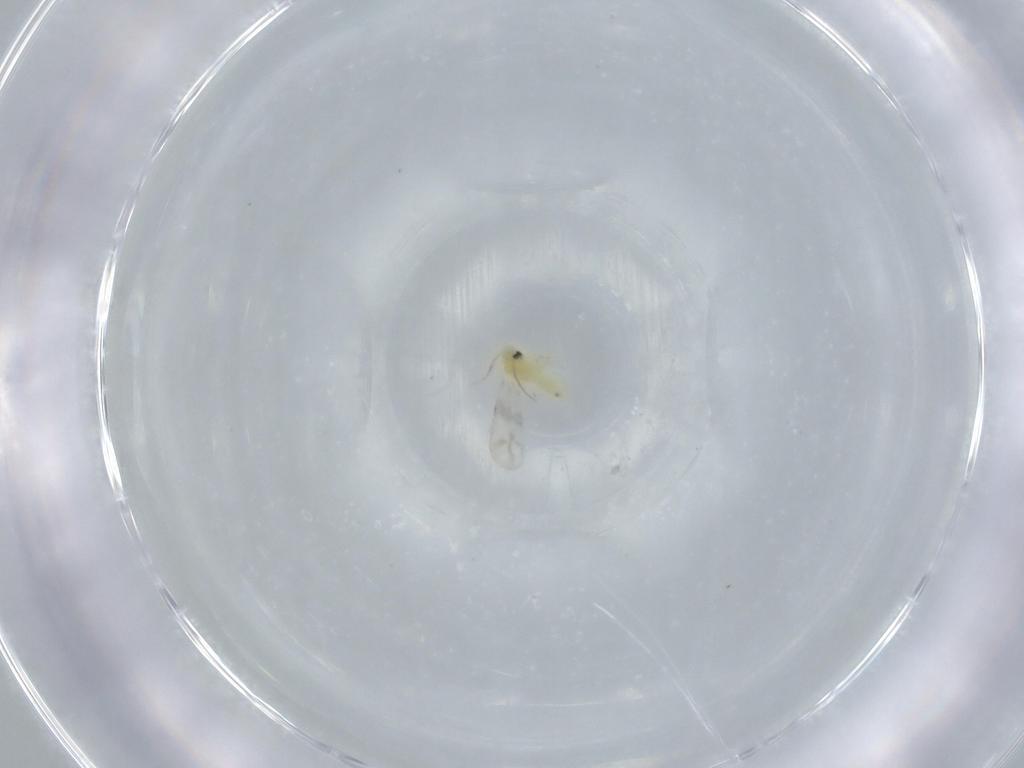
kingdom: Animalia
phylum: Arthropoda
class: Insecta
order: Hemiptera
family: Aleyrodidae
